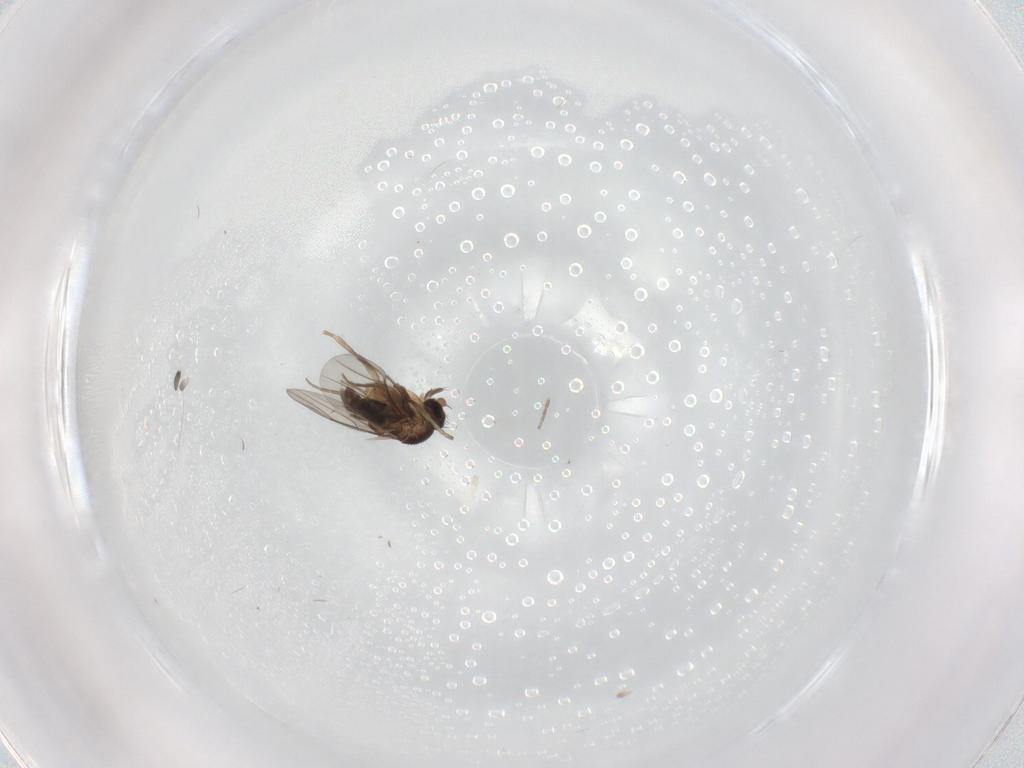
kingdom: Animalia
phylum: Arthropoda
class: Insecta
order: Diptera
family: Phoridae
